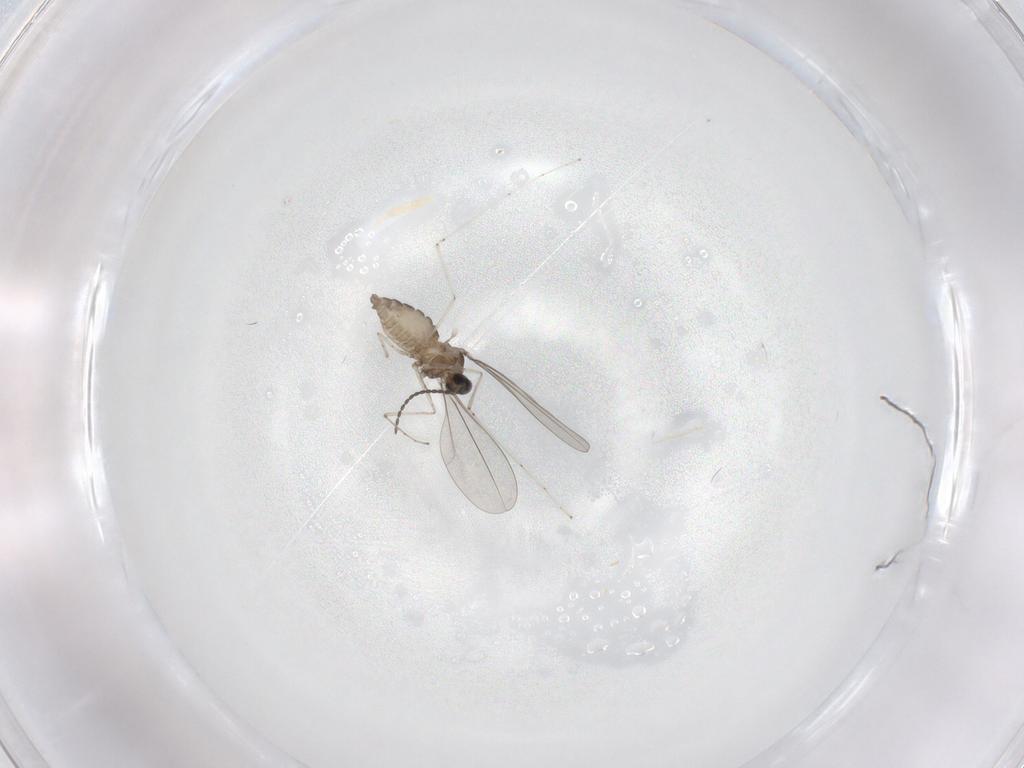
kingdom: Animalia
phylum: Arthropoda
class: Insecta
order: Diptera
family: Cecidomyiidae
